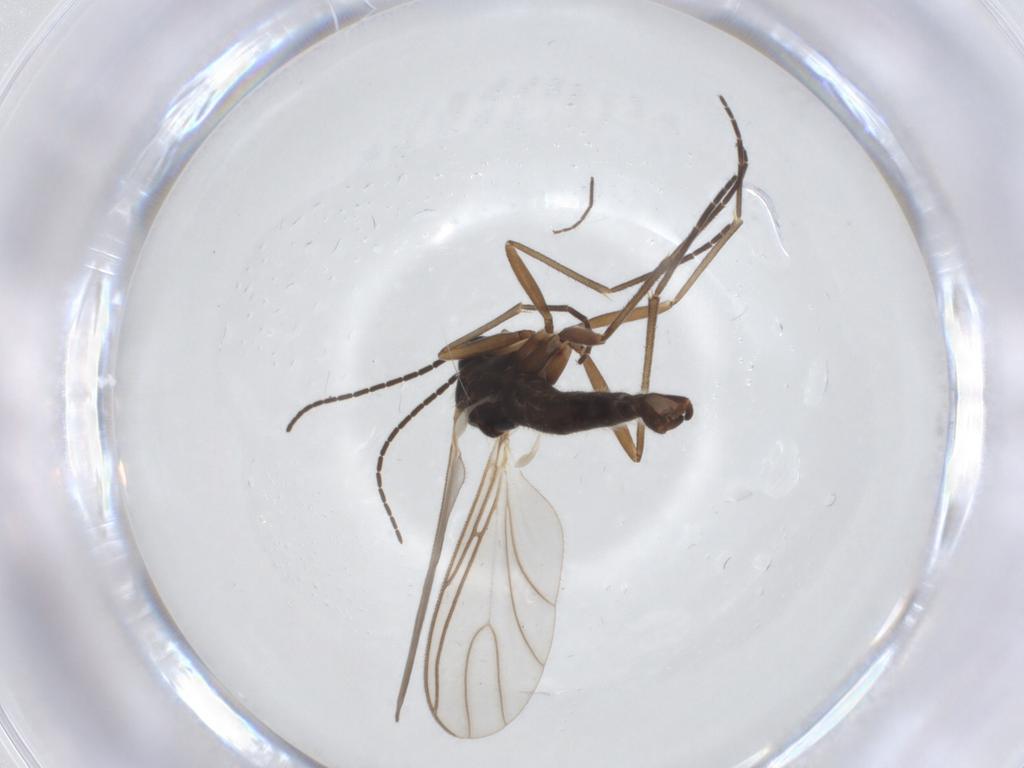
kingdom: Animalia
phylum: Arthropoda
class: Insecta
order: Diptera
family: Sciaridae
